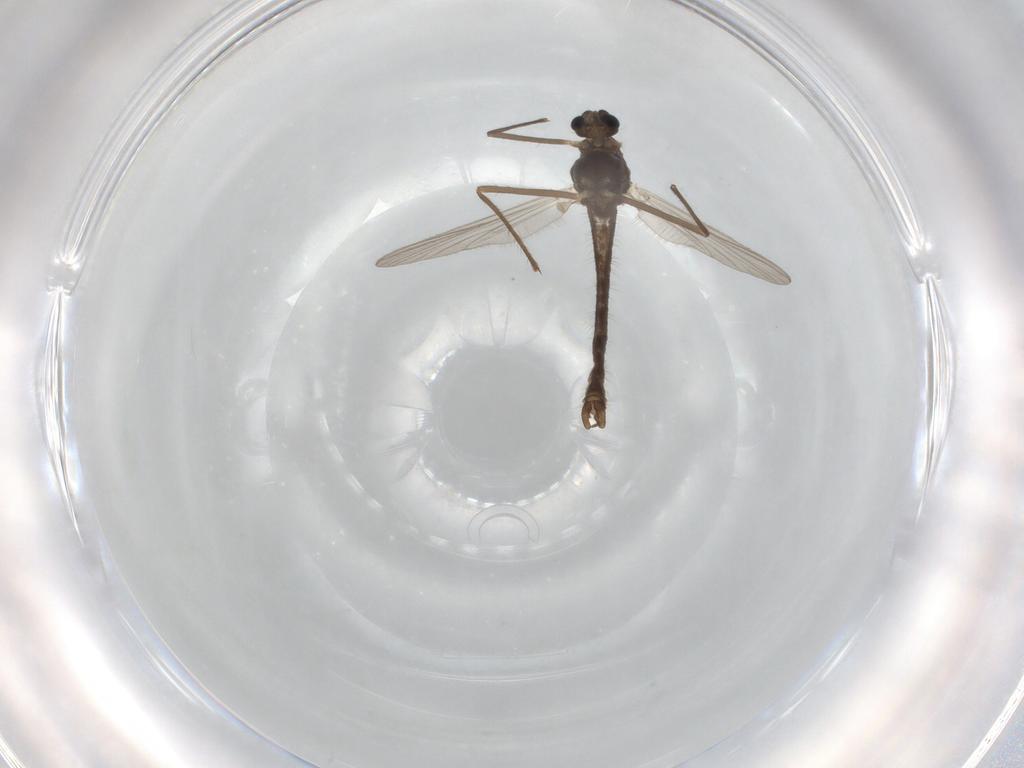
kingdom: Animalia
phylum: Arthropoda
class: Insecta
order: Diptera
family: Chironomidae
